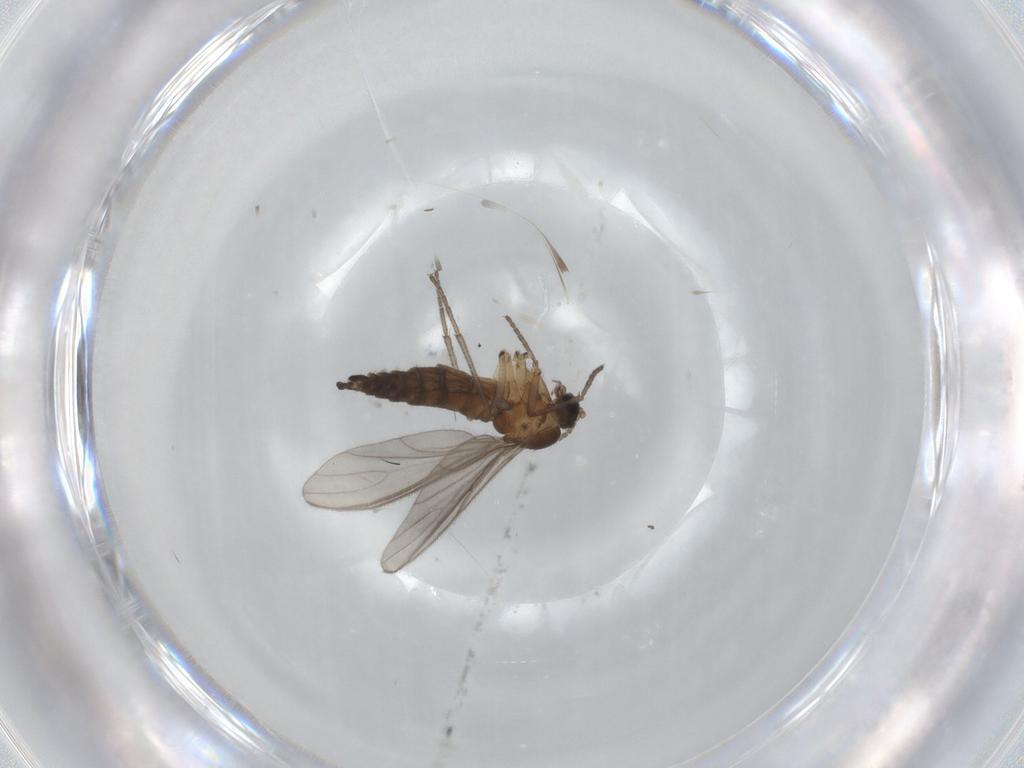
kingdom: Animalia
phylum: Arthropoda
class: Insecta
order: Diptera
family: Sciaridae
